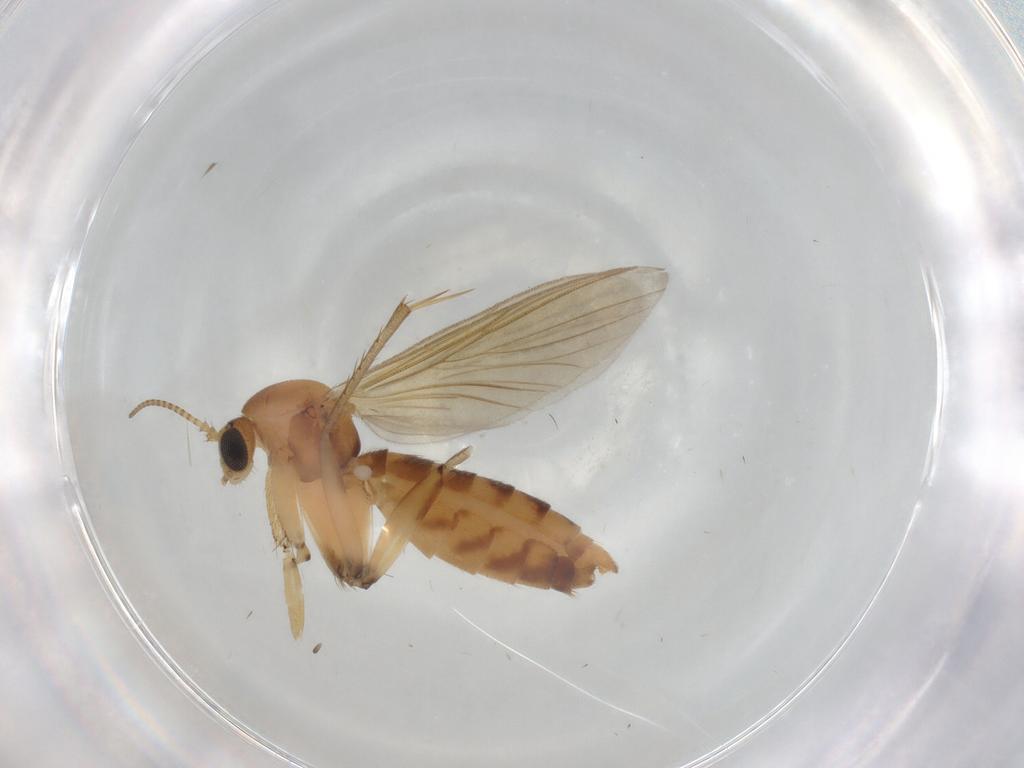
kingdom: Animalia
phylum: Arthropoda
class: Insecta
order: Diptera
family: Mycetophilidae
